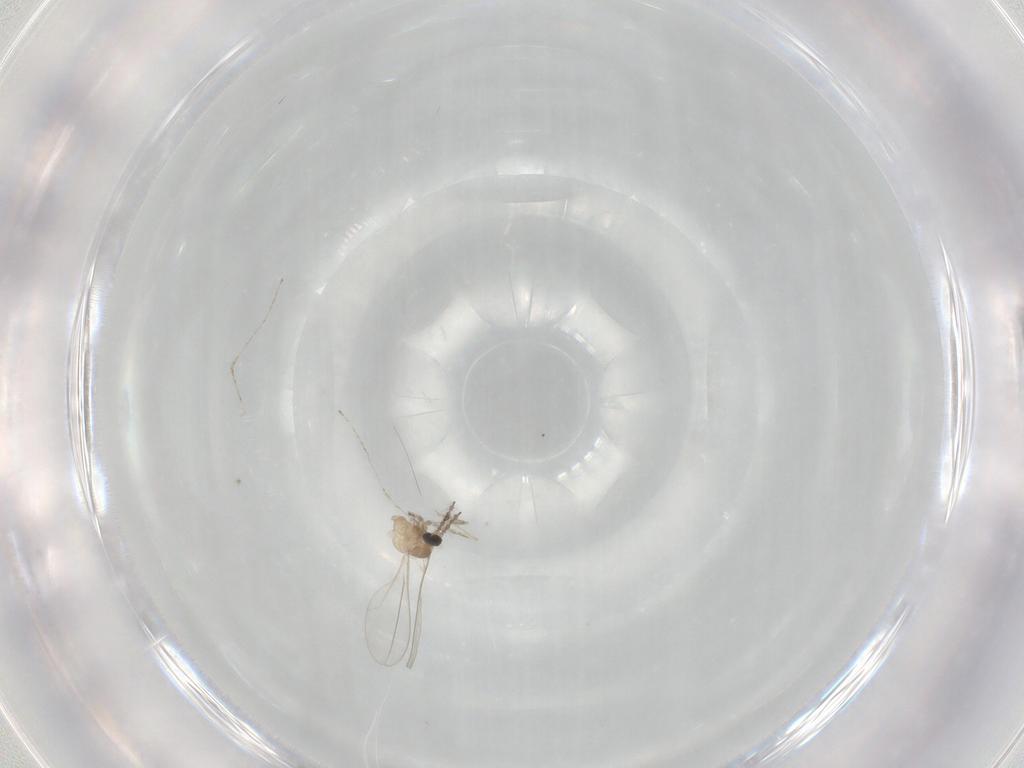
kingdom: Animalia
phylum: Arthropoda
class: Insecta
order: Diptera
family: Cecidomyiidae
